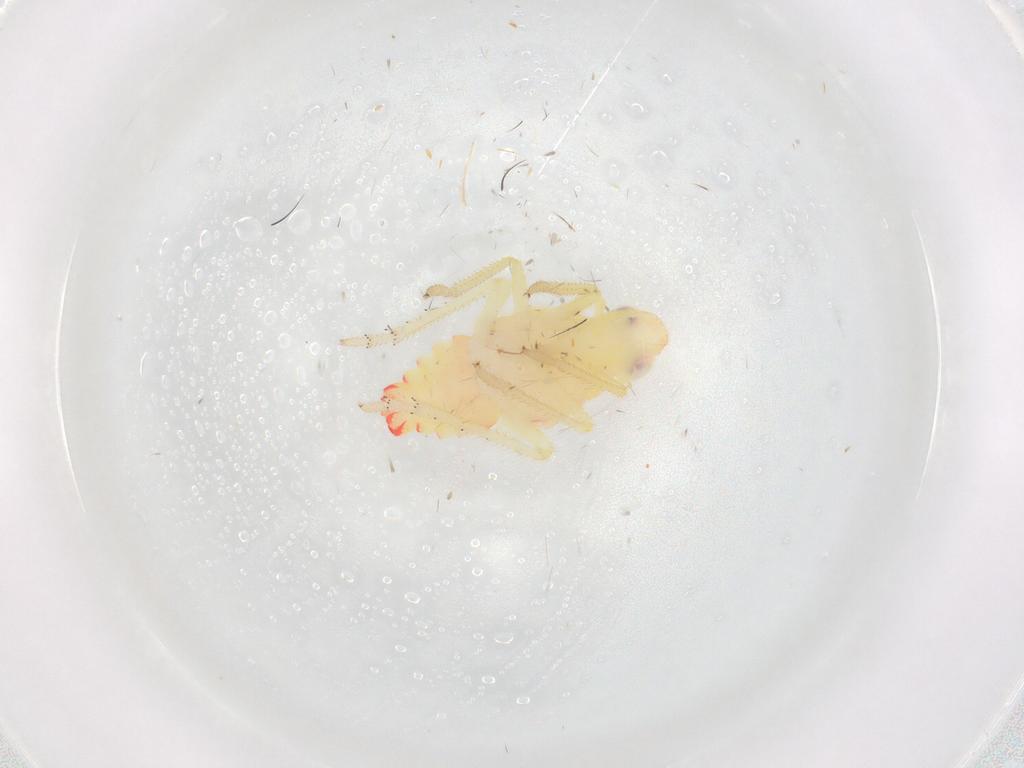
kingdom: Animalia
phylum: Arthropoda
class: Insecta
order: Hemiptera
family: Tropiduchidae
